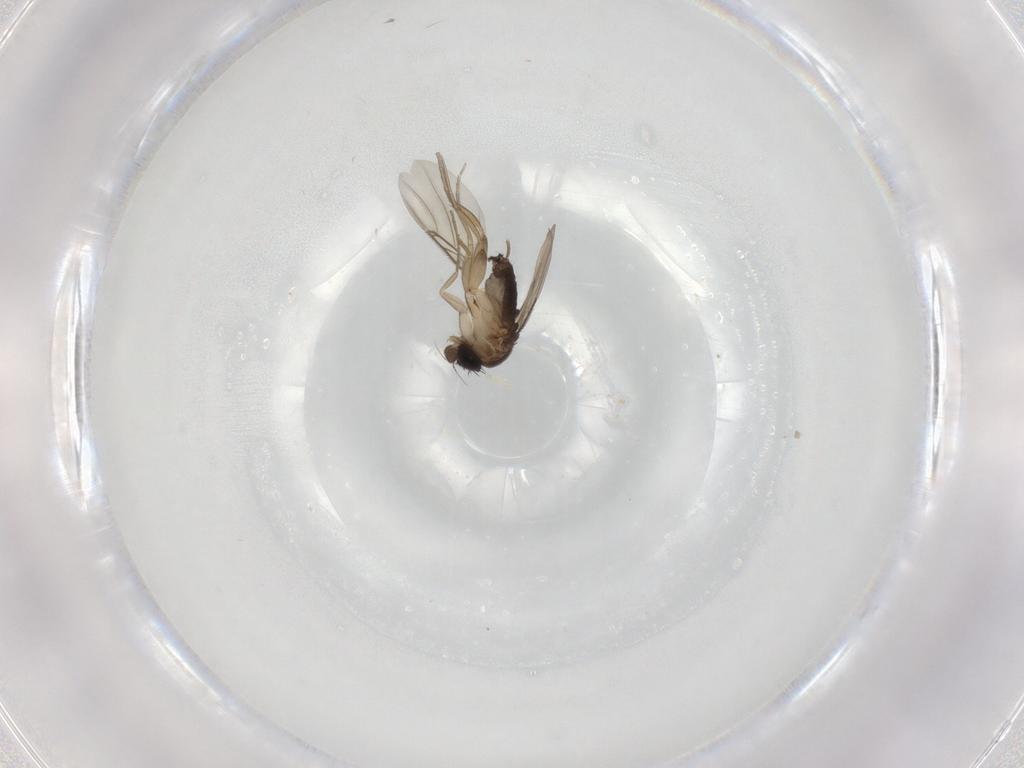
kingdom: Animalia
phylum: Arthropoda
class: Insecta
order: Diptera
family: Phoridae
